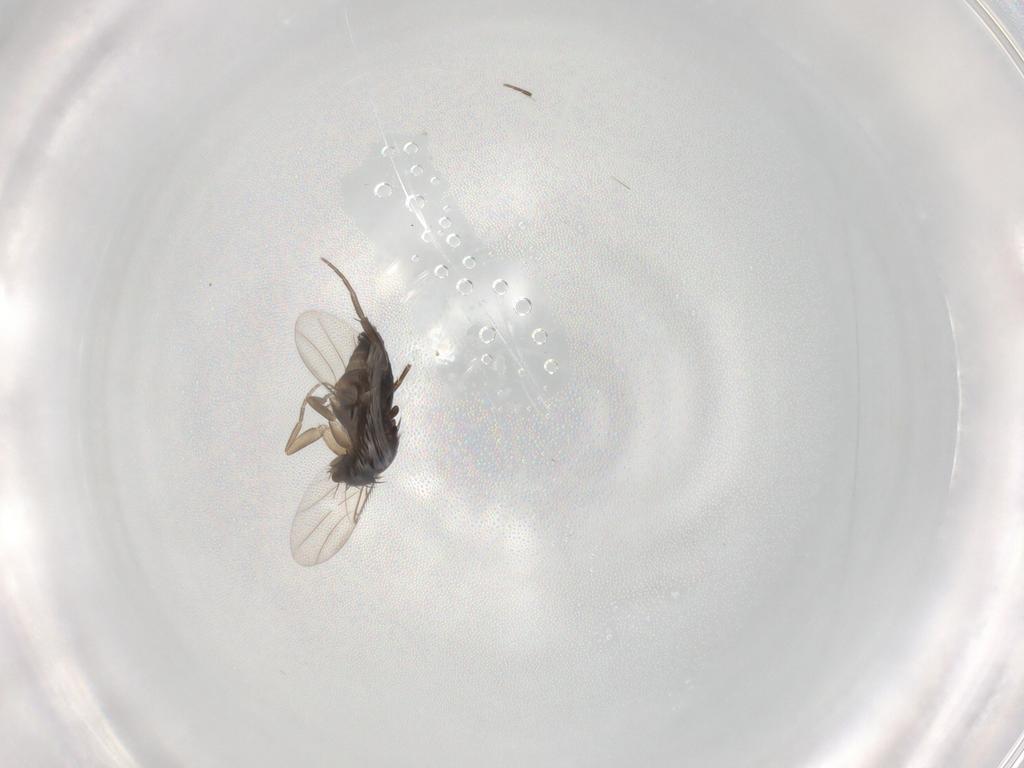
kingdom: Animalia
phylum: Arthropoda
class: Insecta
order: Diptera
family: Phoridae
